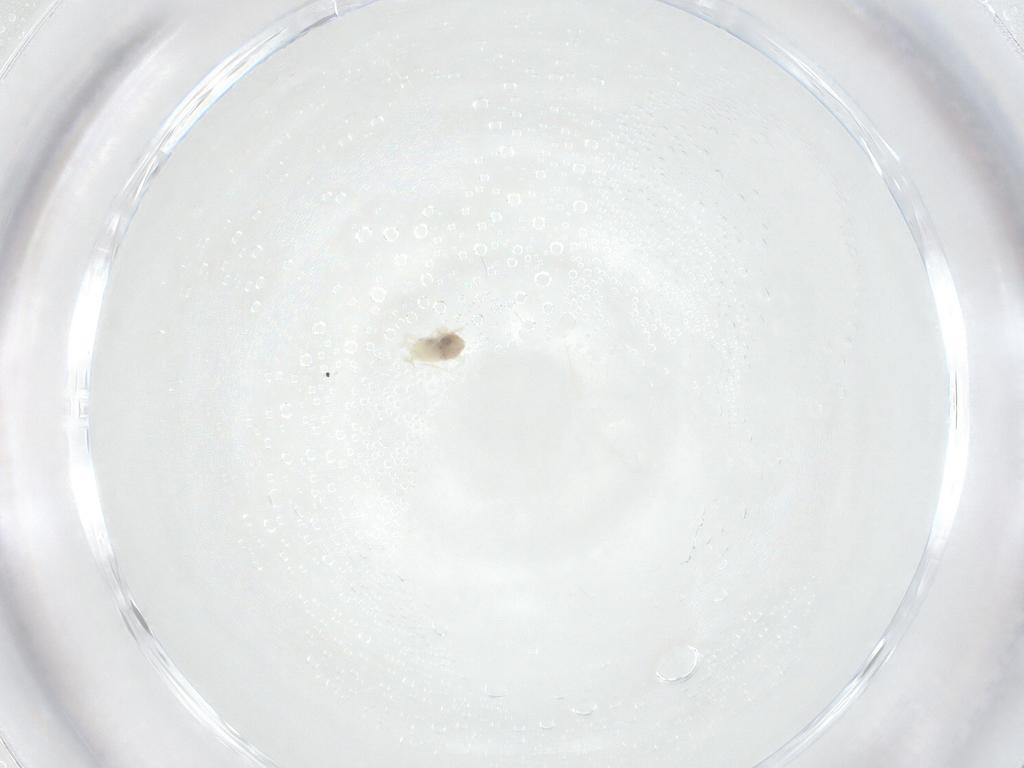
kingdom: Animalia
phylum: Arthropoda
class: Arachnida
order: Trombidiformes
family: Anystidae
